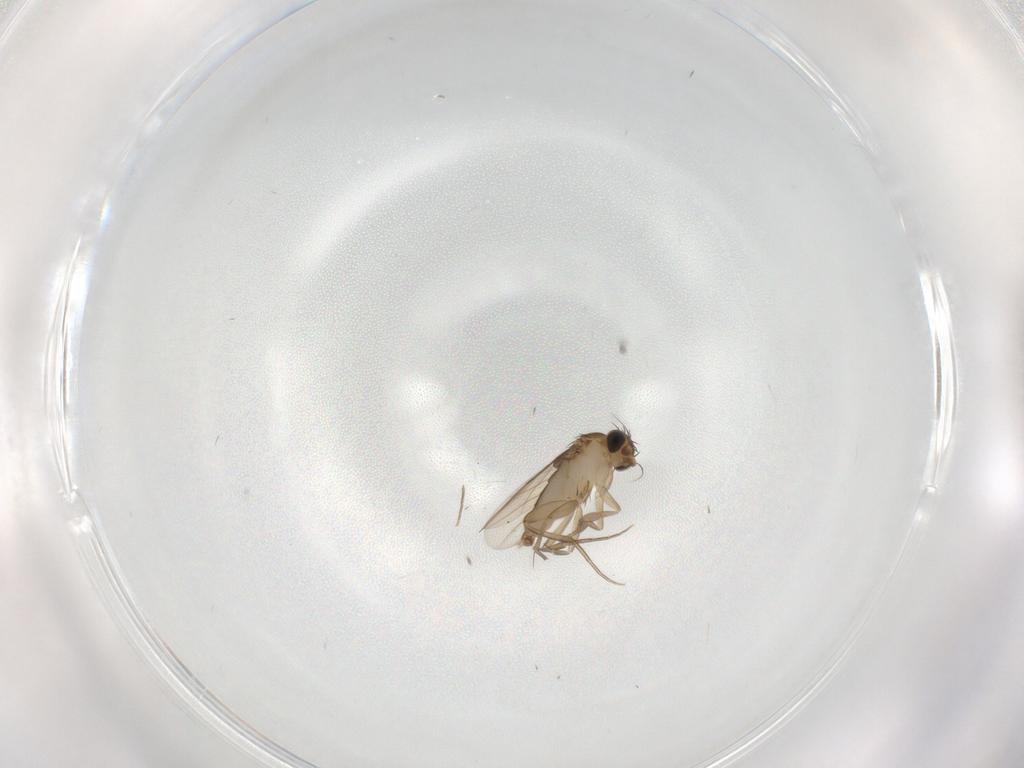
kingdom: Animalia
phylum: Arthropoda
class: Insecta
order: Diptera
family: Phoridae
